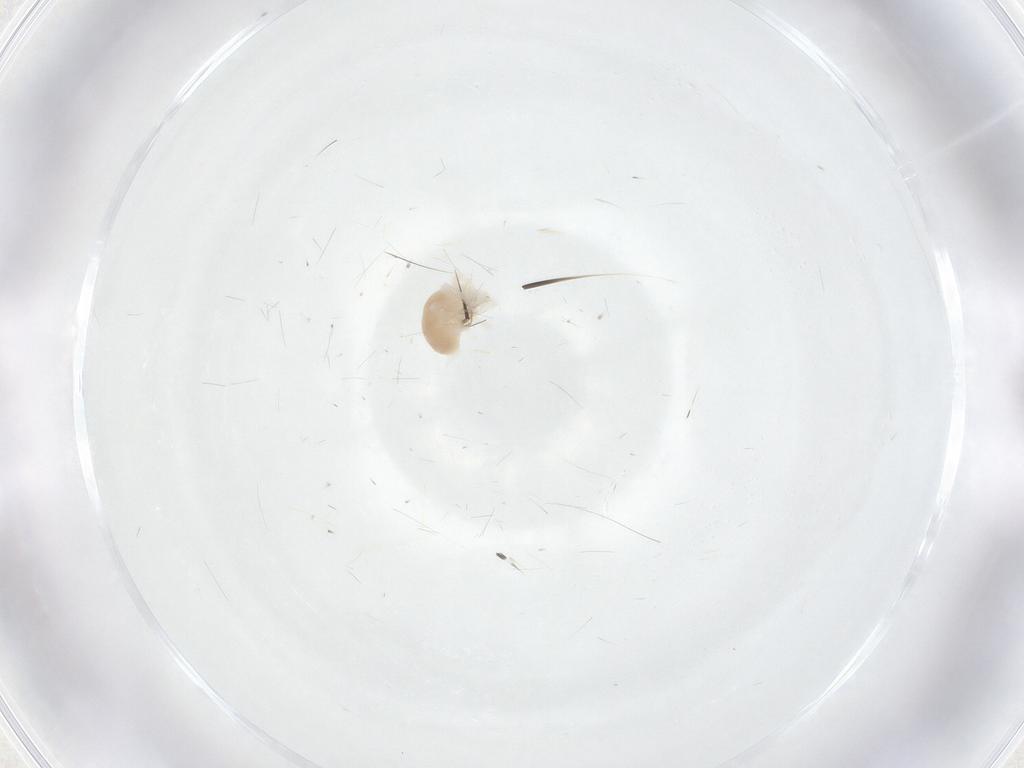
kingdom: Animalia
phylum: Arthropoda
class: Arachnida
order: Trombidiformes
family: Anystidae
